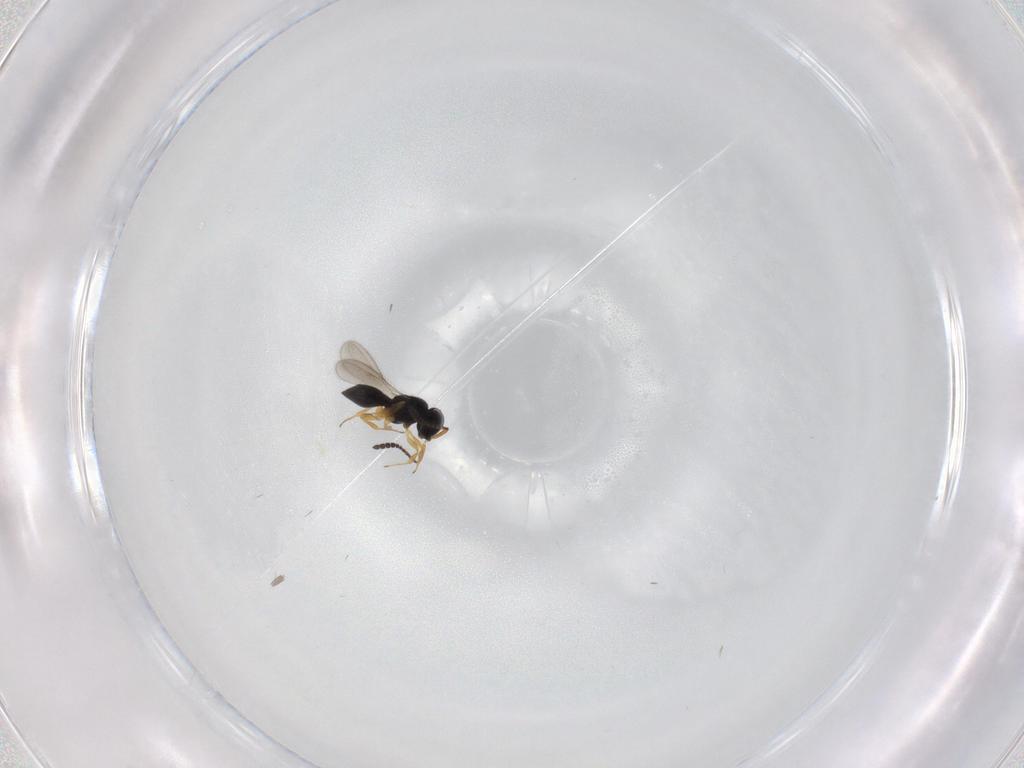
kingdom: Animalia
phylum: Arthropoda
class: Insecta
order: Hymenoptera
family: Scelionidae
